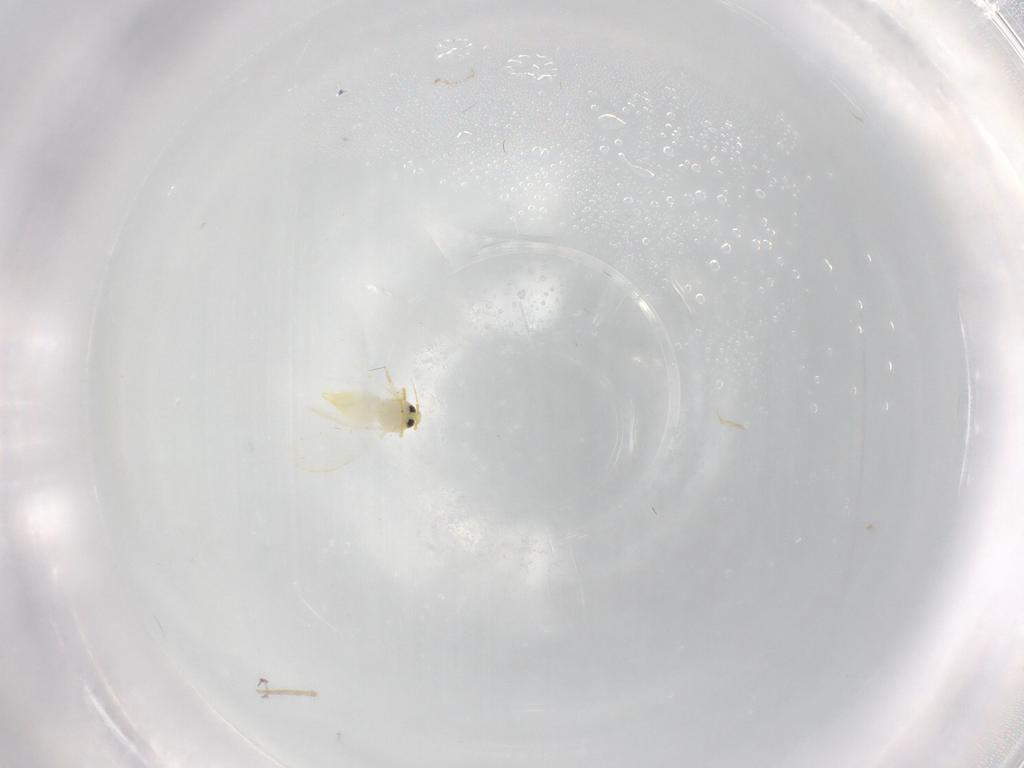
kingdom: Animalia
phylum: Arthropoda
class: Insecta
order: Hemiptera
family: Aleyrodidae
